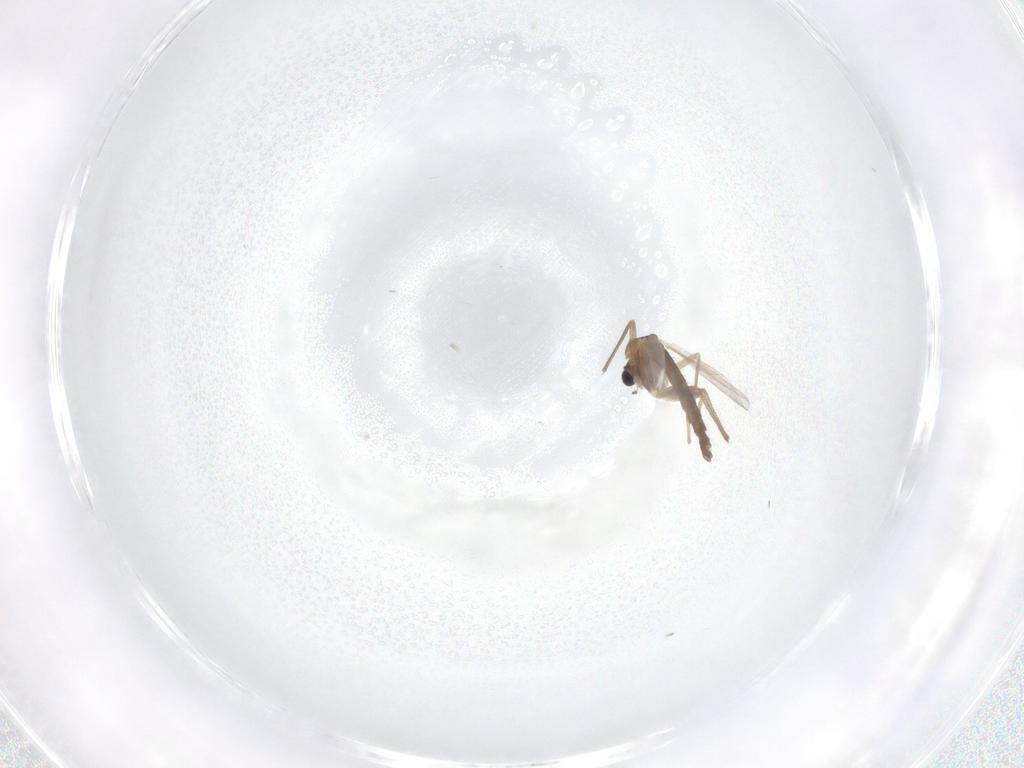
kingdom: Animalia
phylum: Arthropoda
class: Insecta
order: Diptera
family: Chironomidae
